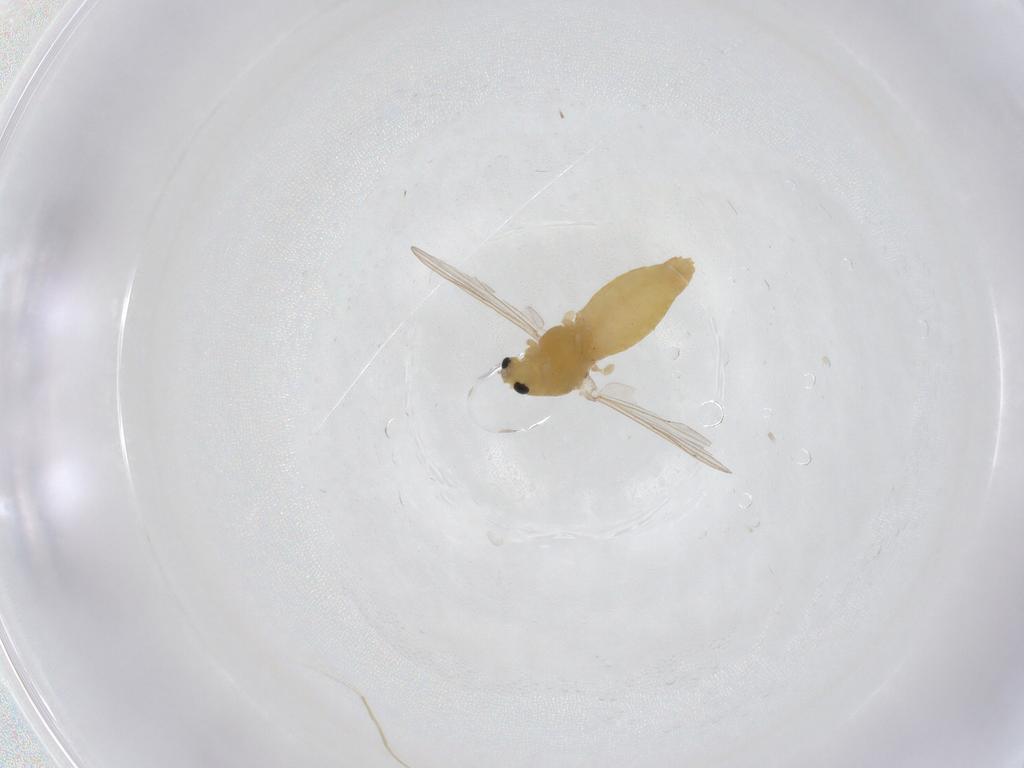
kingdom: Animalia
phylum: Arthropoda
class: Insecta
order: Diptera
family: Chironomidae
